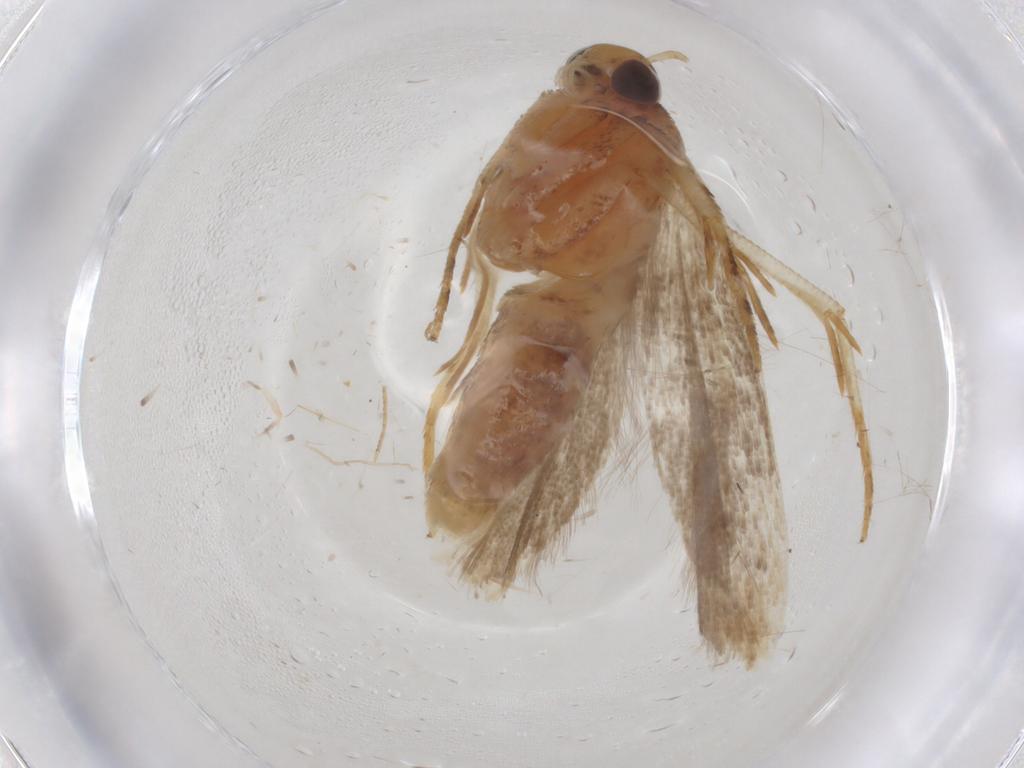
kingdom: Animalia
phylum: Arthropoda
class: Insecta
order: Lepidoptera
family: Gelechiidae
